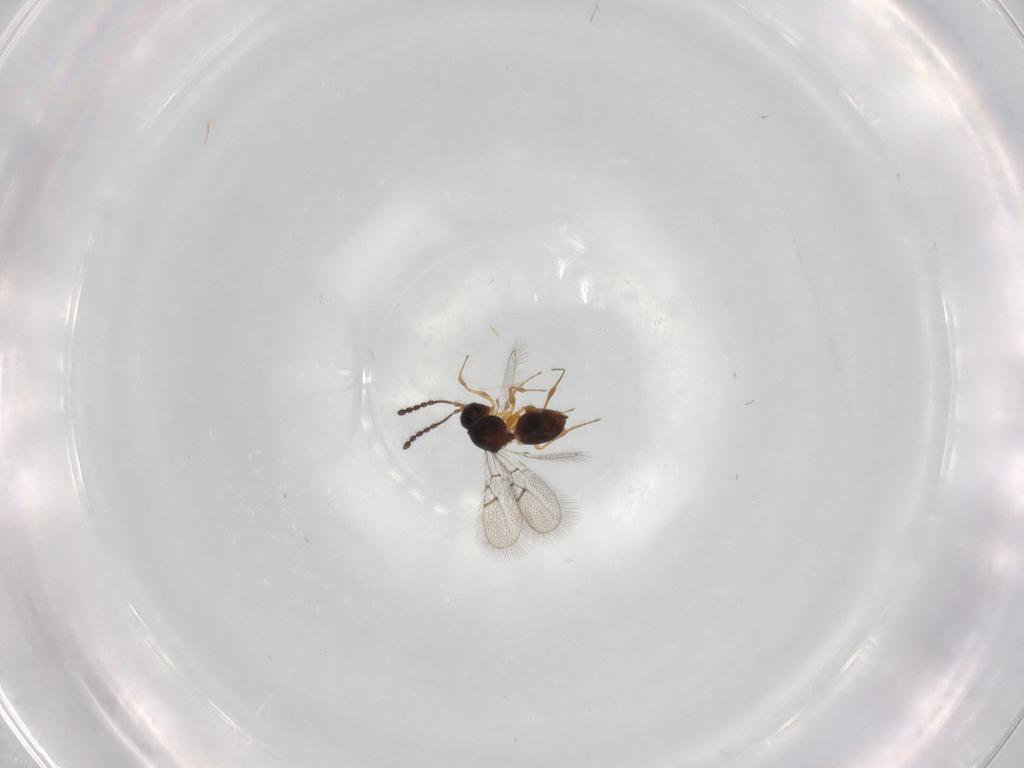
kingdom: Animalia
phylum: Arthropoda
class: Insecta
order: Hymenoptera
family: Figitidae
